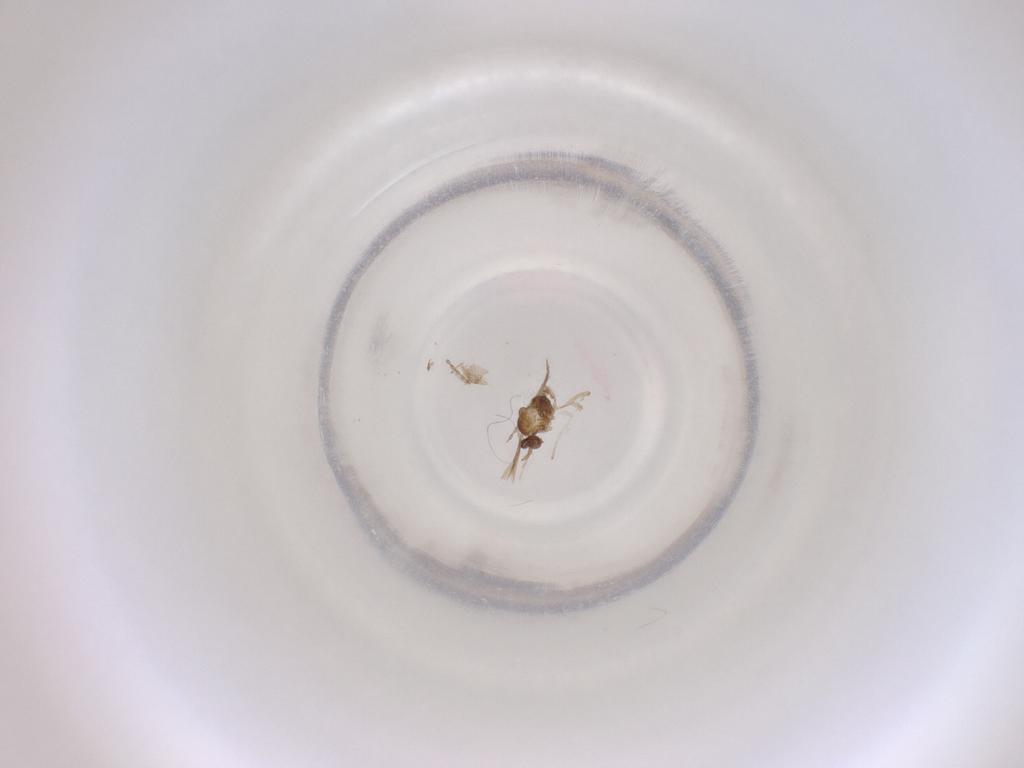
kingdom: Animalia
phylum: Arthropoda
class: Insecta
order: Diptera
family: Cecidomyiidae
